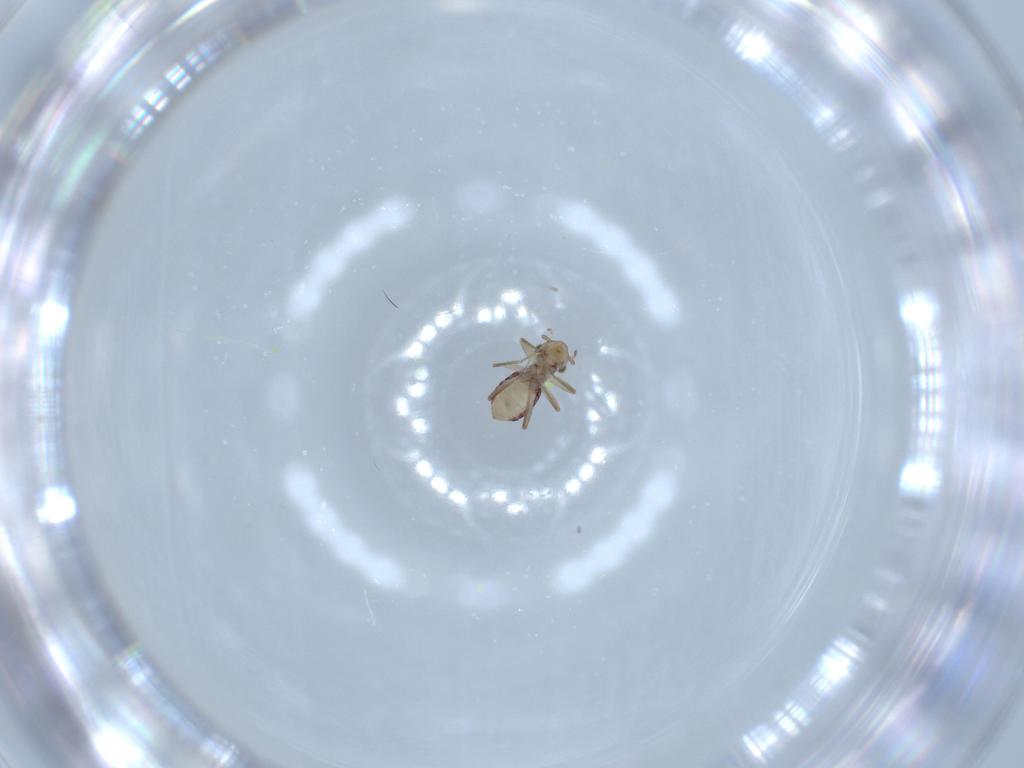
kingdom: Animalia
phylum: Arthropoda
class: Insecta
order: Psocodea
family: Lepidopsocidae
